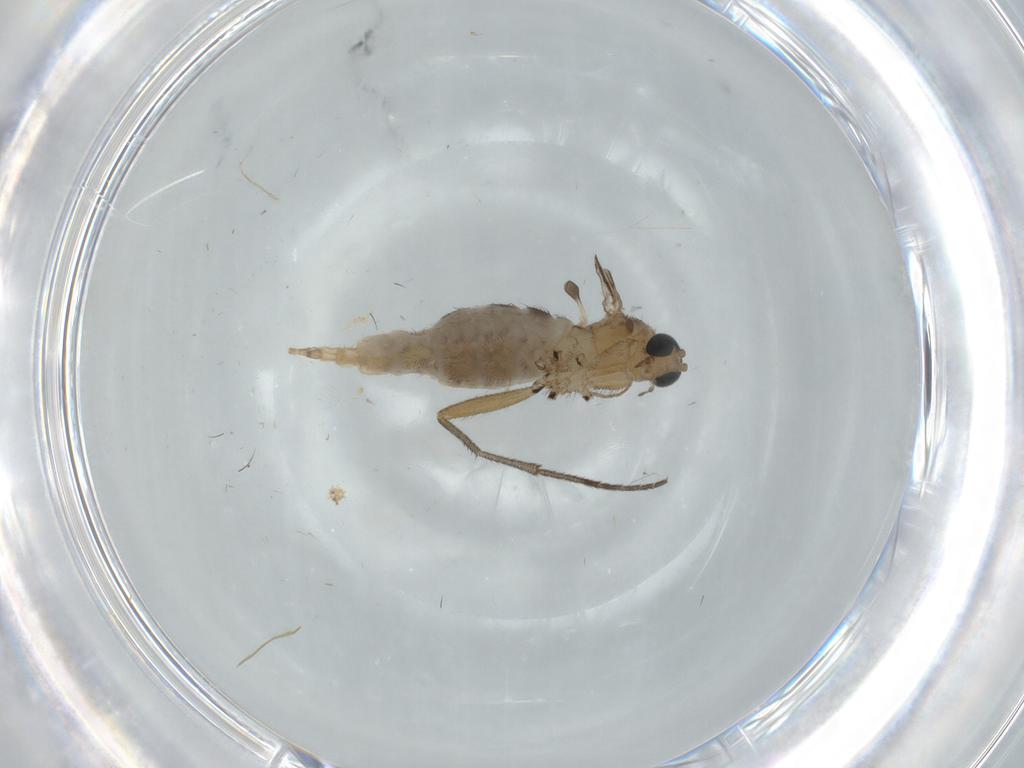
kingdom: Animalia
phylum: Arthropoda
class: Insecta
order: Diptera
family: Sciaridae
